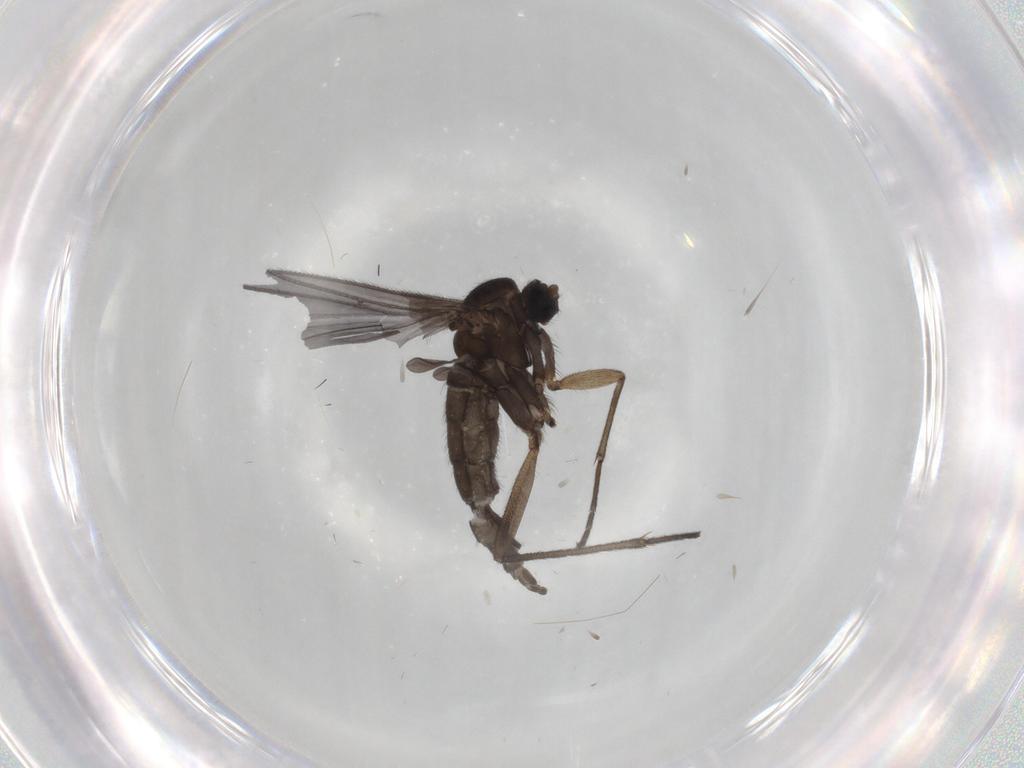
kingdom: Animalia
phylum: Arthropoda
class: Insecta
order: Diptera
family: Sciaridae
